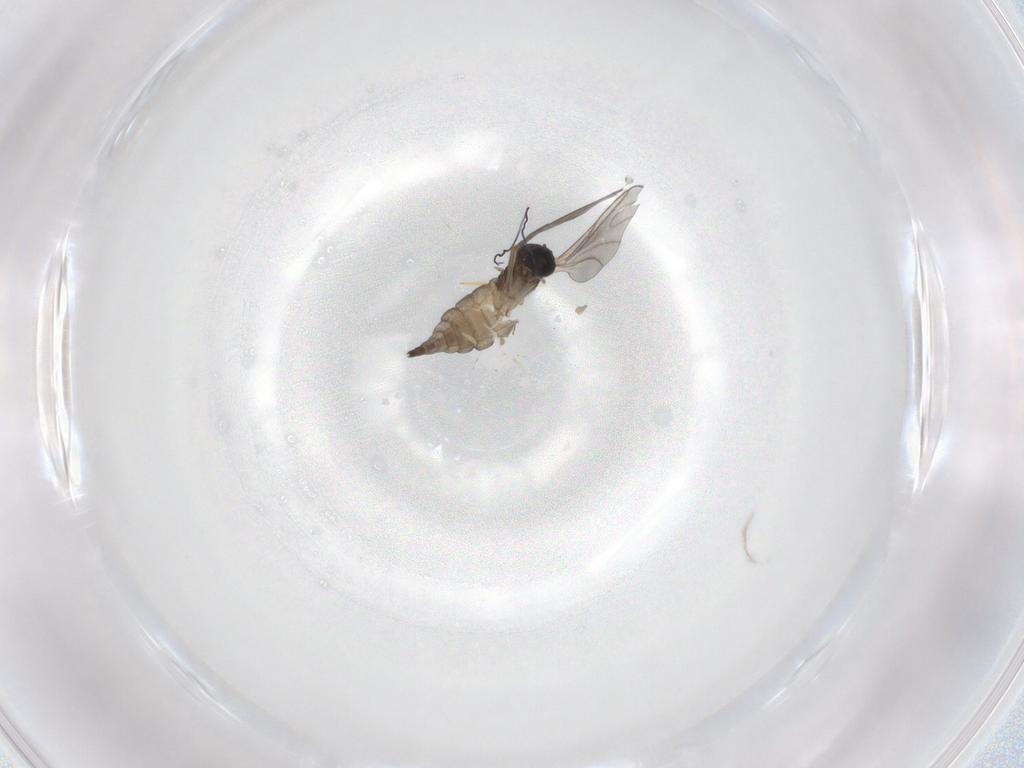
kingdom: Animalia
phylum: Arthropoda
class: Insecta
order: Diptera
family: Sciaridae
